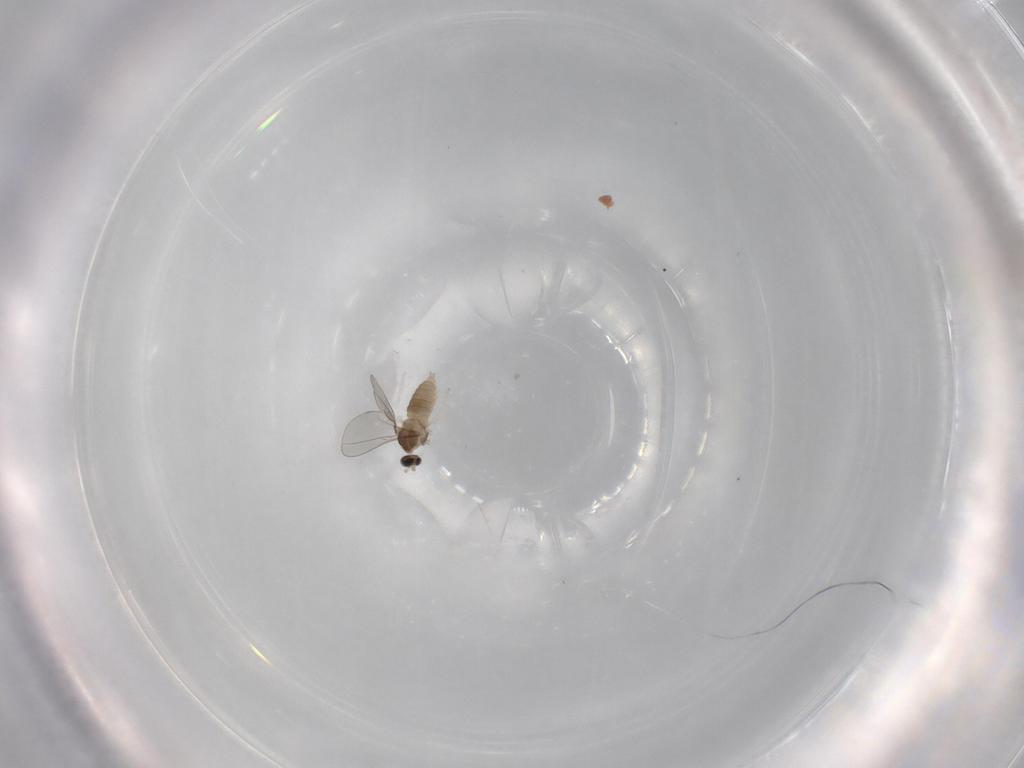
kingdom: Animalia
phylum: Arthropoda
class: Insecta
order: Diptera
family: Cecidomyiidae
